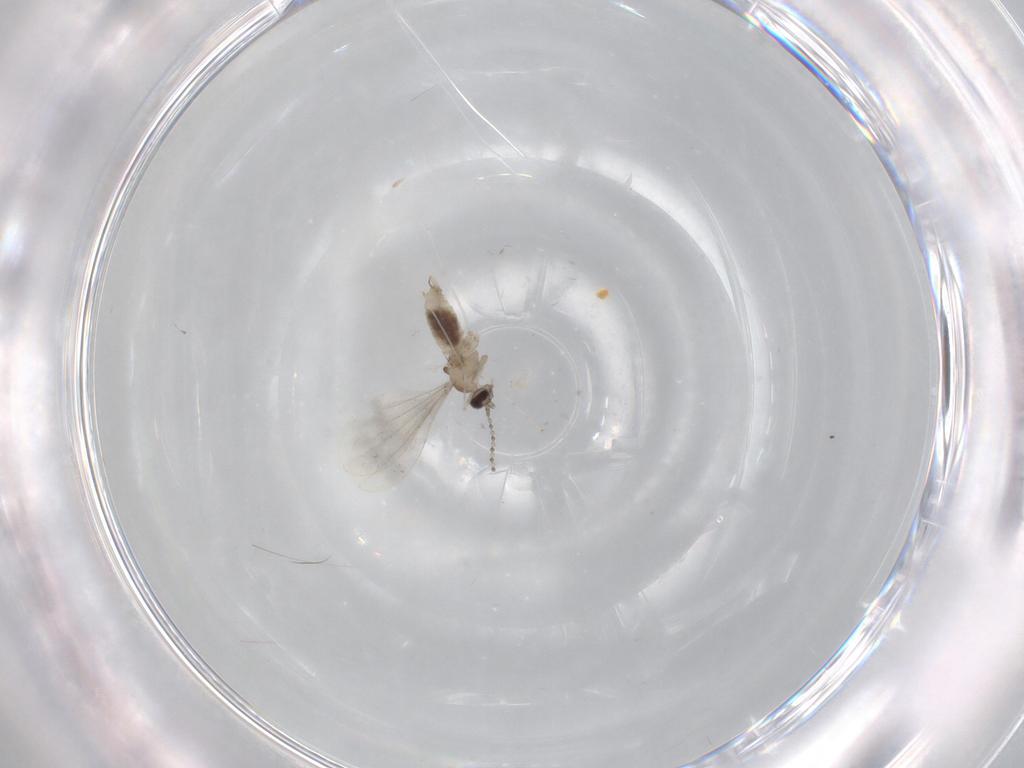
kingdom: Animalia
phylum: Arthropoda
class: Insecta
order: Diptera
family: Cecidomyiidae
